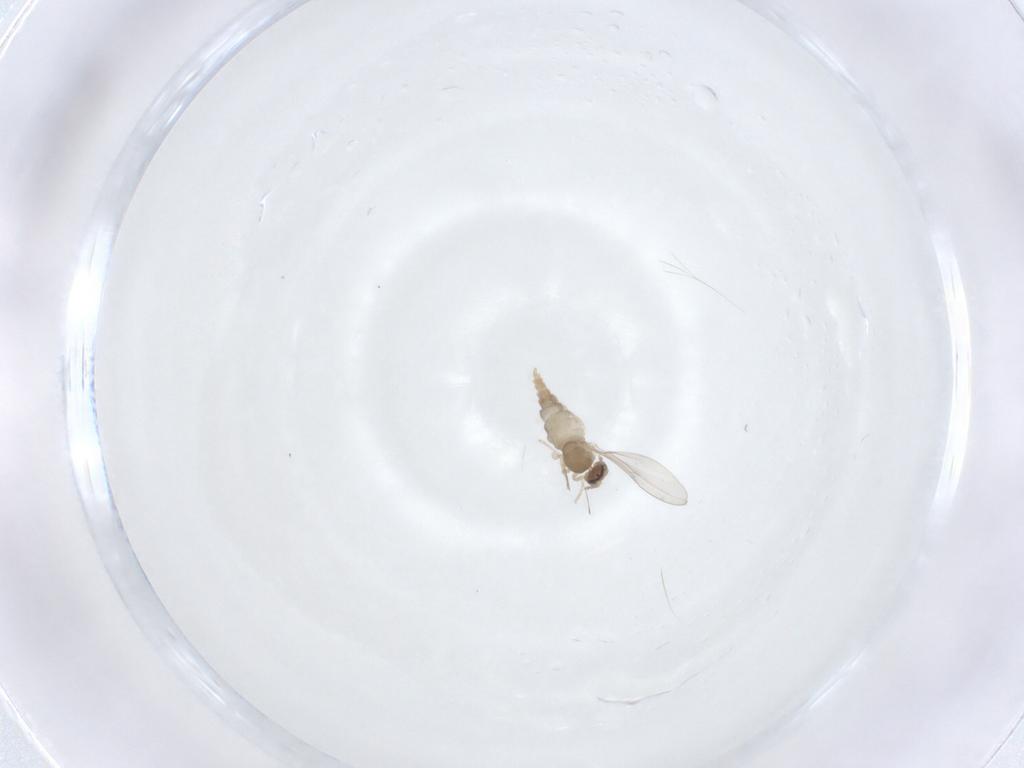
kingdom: Animalia
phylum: Arthropoda
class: Insecta
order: Diptera
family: Cecidomyiidae
